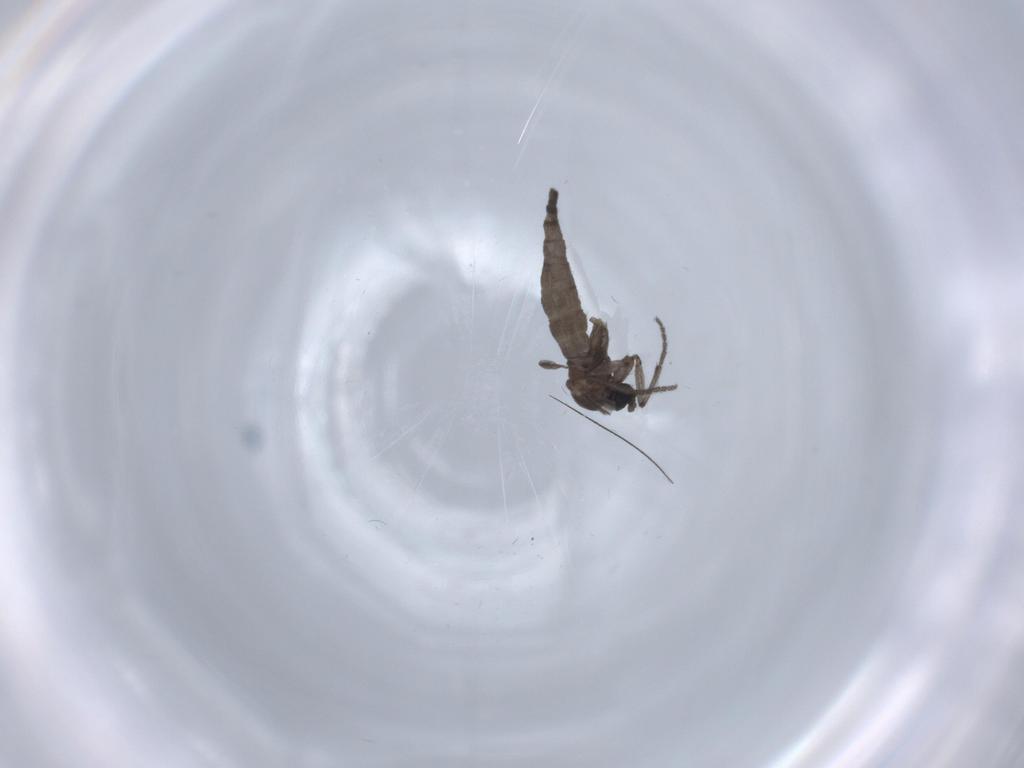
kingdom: Animalia
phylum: Arthropoda
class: Insecta
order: Diptera
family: Sciaridae
